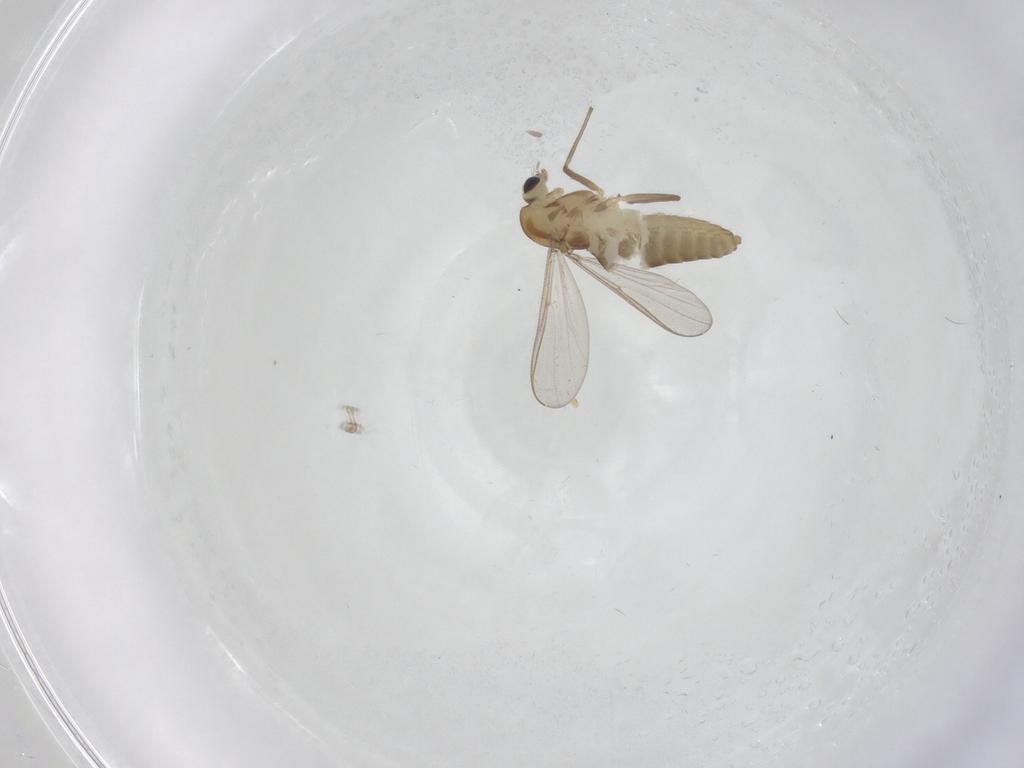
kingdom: Animalia
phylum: Arthropoda
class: Insecta
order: Diptera
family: Chironomidae
